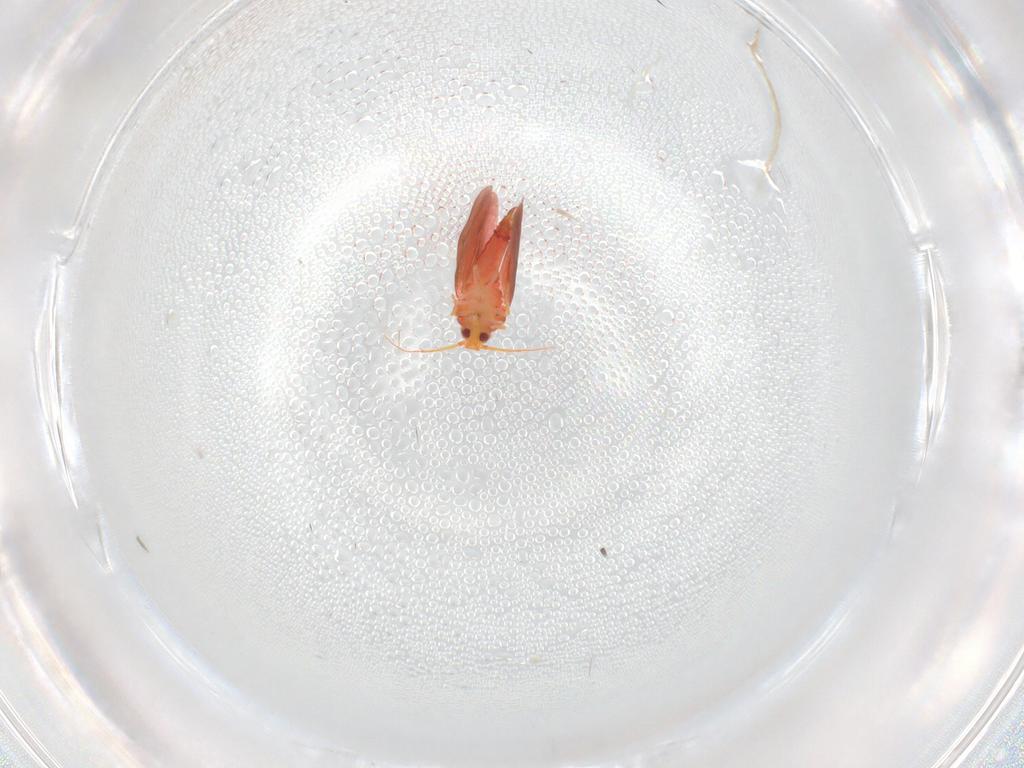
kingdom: Animalia
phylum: Arthropoda
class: Insecta
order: Hemiptera
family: Aleyrodidae
